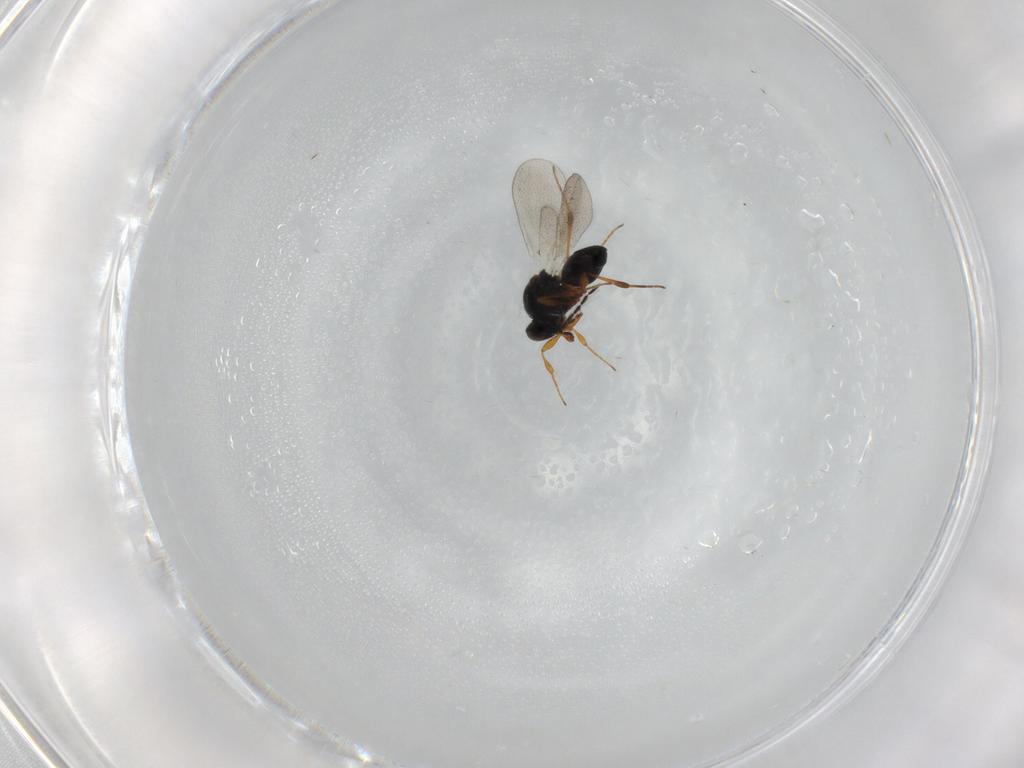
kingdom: Animalia
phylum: Arthropoda
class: Insecta
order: Hymenoptera
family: Platygastridae
